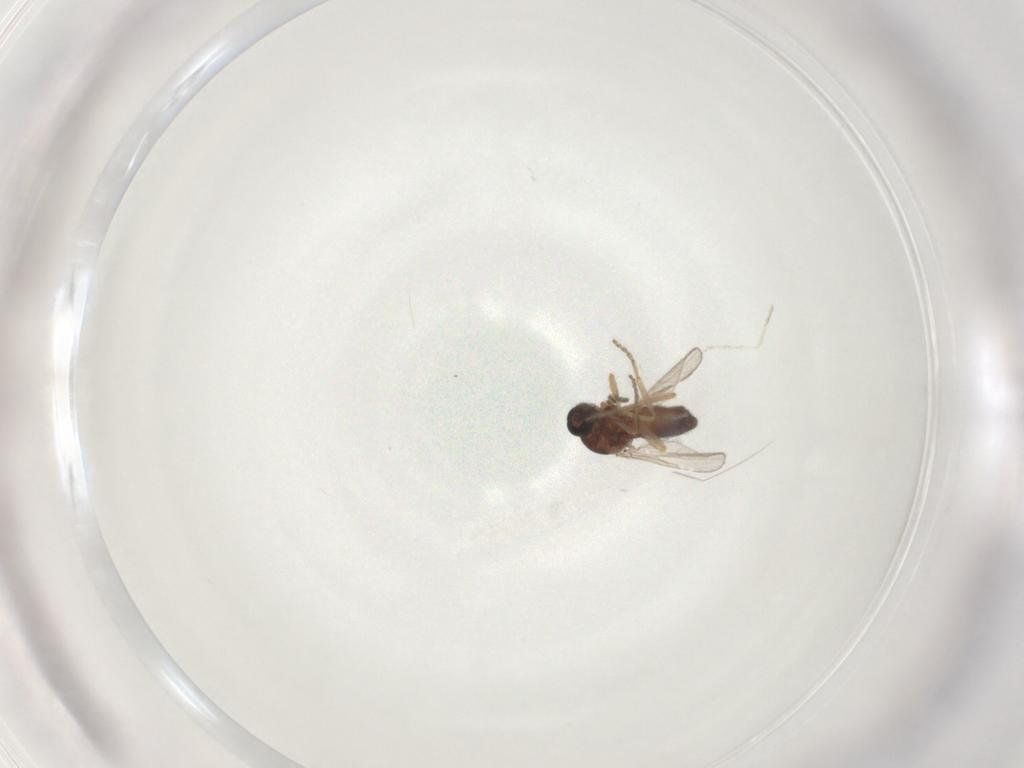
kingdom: Animalia
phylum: Arthropoda
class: Insecta
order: Diptera
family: Ceratopogonidae
